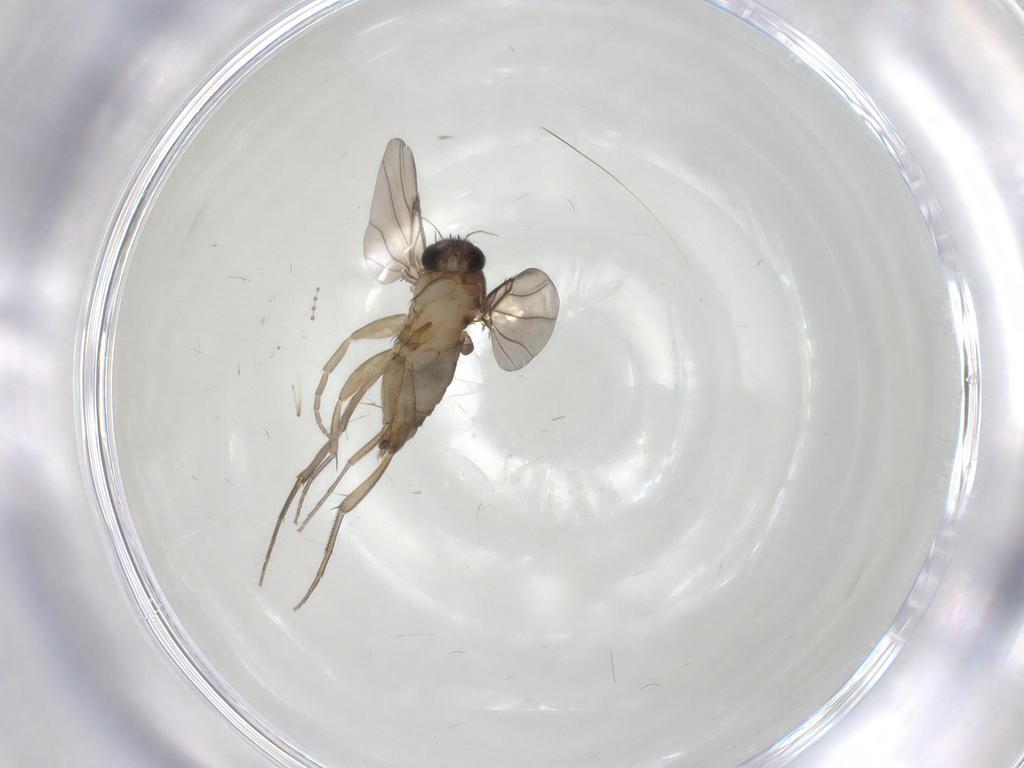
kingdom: Animalia
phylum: Arthropoda
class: Insecta
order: Diptera
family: Phoridae
